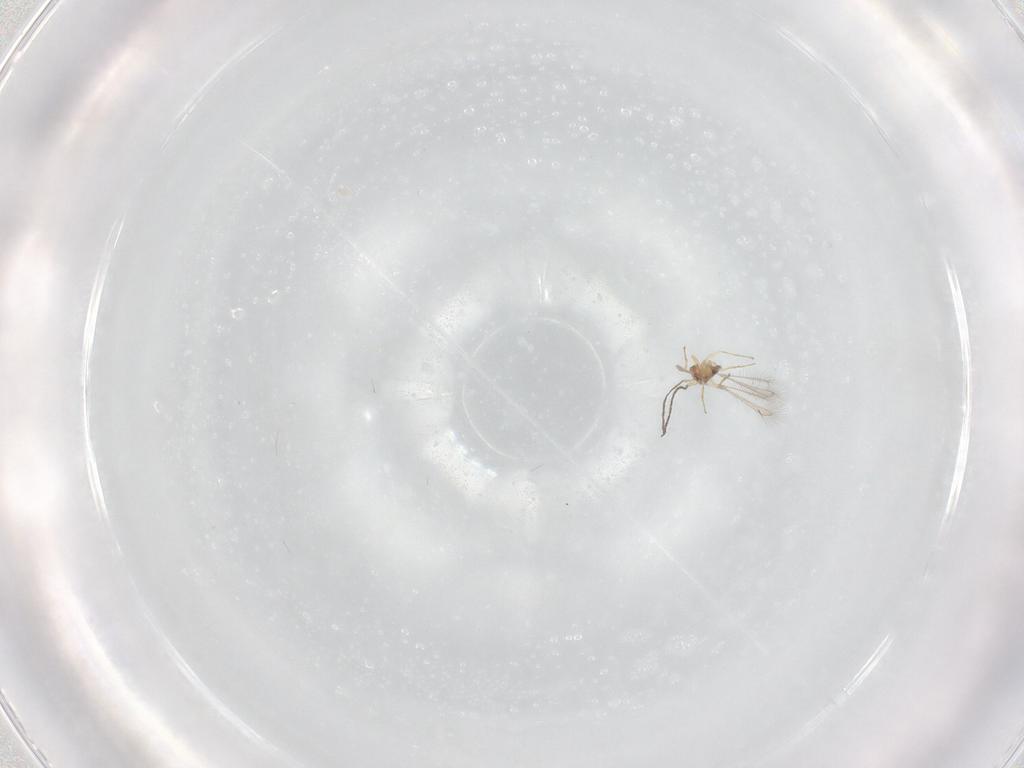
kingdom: Animalia
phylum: Arthropoda
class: Insecta
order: Hymenoptera
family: Mymaridae
